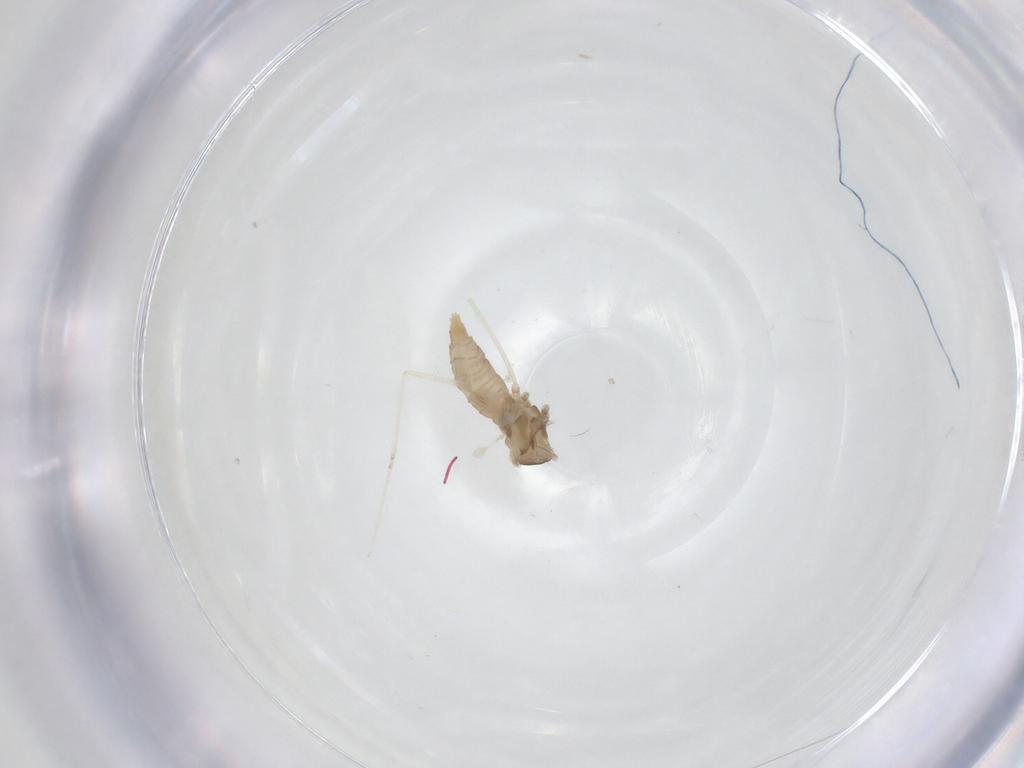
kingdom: Animalia
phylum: Arthropoda
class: Insecta
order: Diptera
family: Cecidomyiidae
